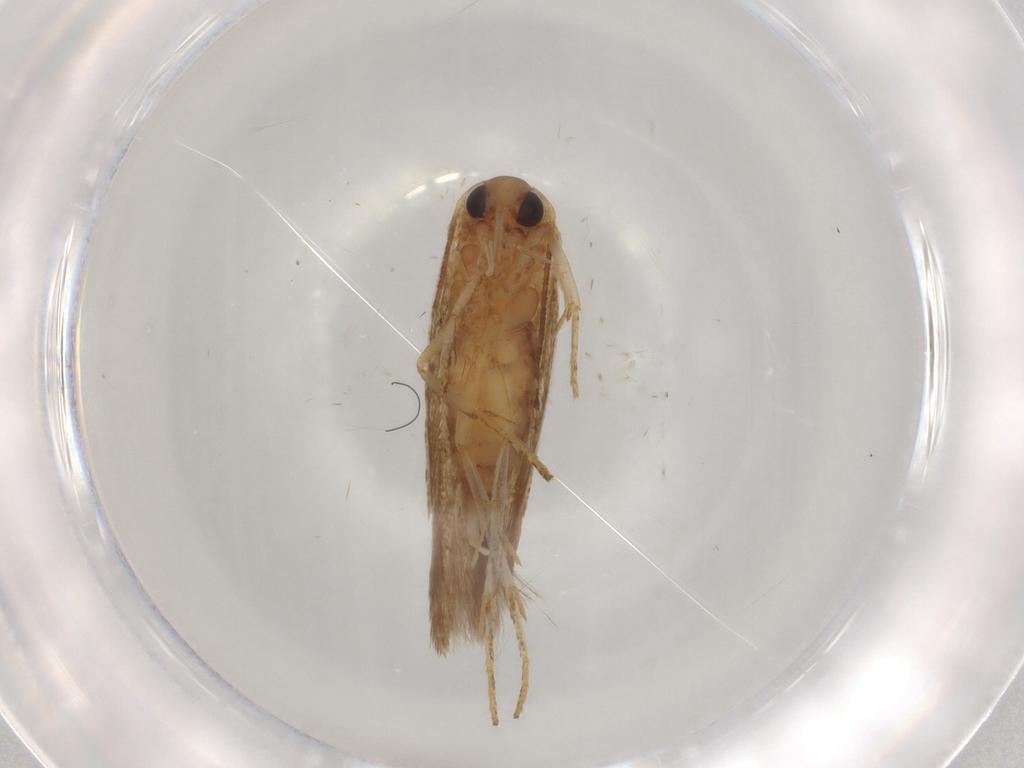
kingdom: Animalia
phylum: Arthropoda
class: Insecta
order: Lepidoptera
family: Blastobasidae
